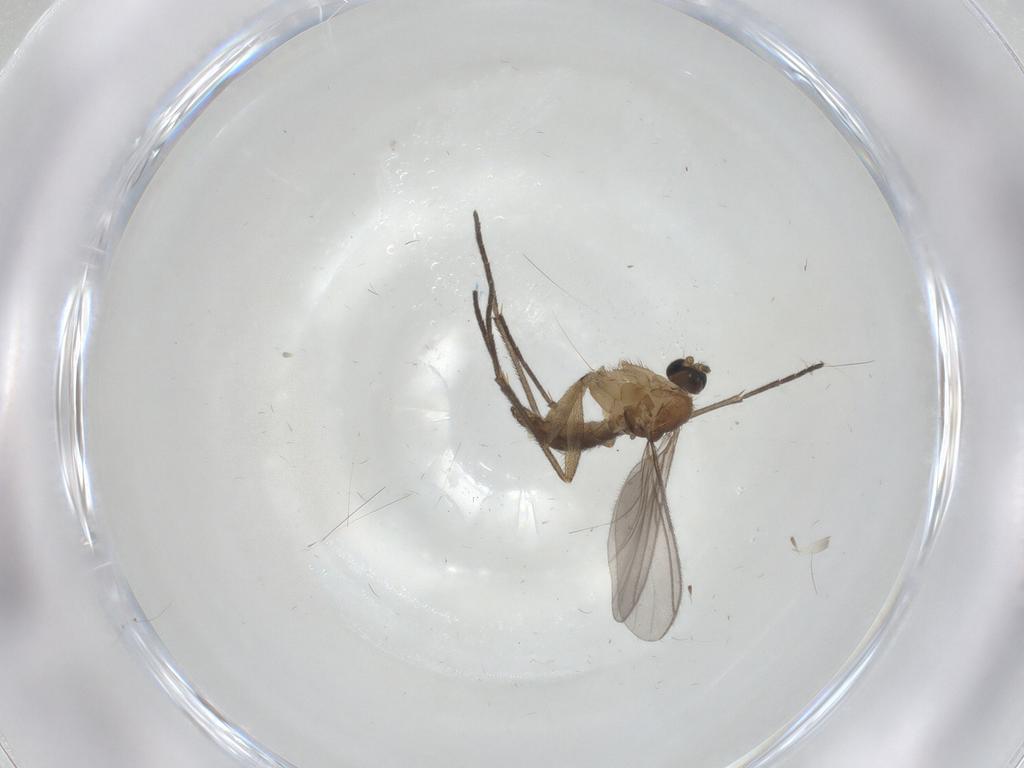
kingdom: Animalia
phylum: Arthropoda
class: Insecta
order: Diptera
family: Sciaridae
